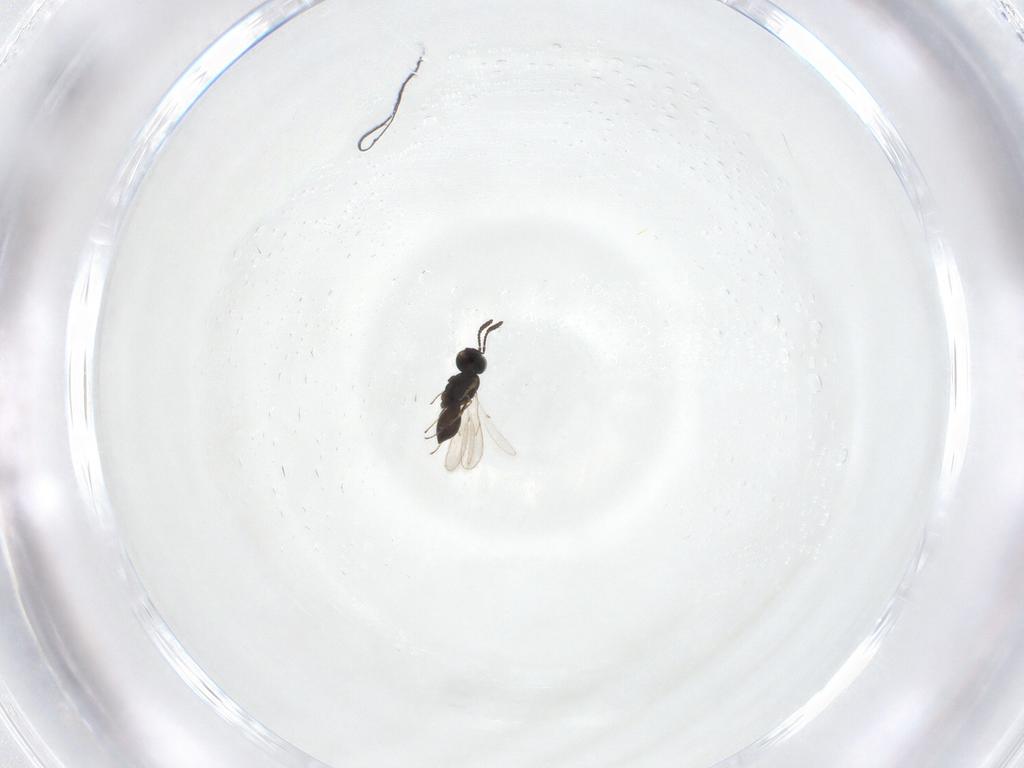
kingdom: Animalia
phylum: Arthropoda
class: Insecta
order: Hymenoptera
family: Scelionidae
